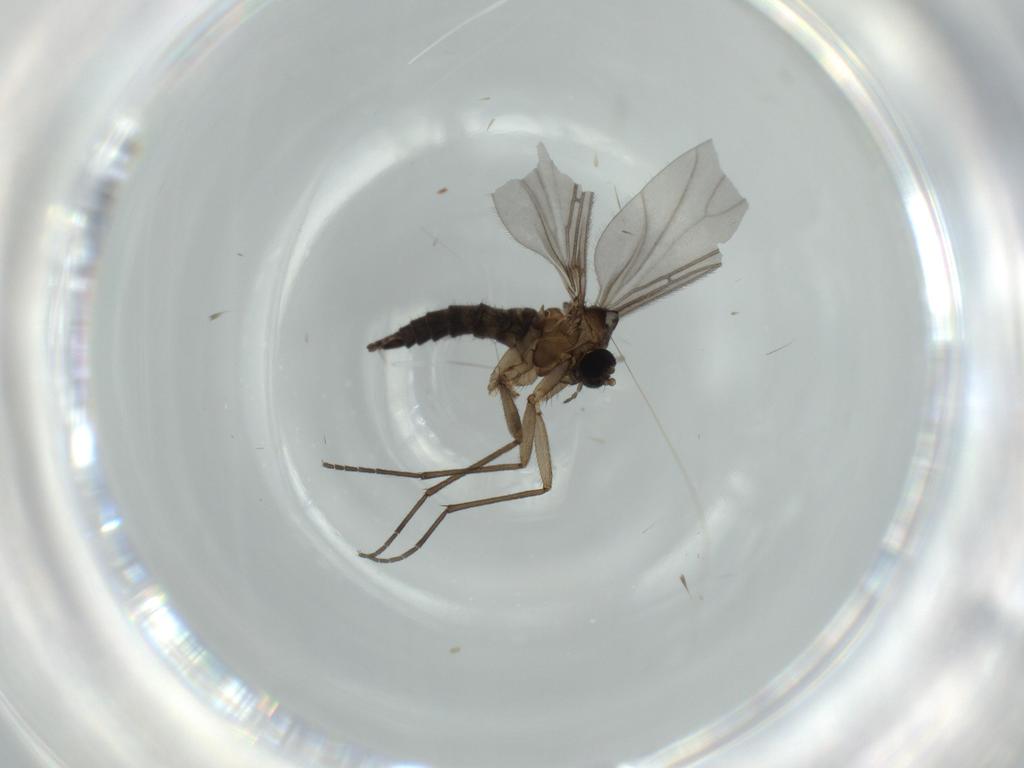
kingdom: Animalia
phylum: Arthropoda
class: Insecta
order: Diptera
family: Sciaridae
